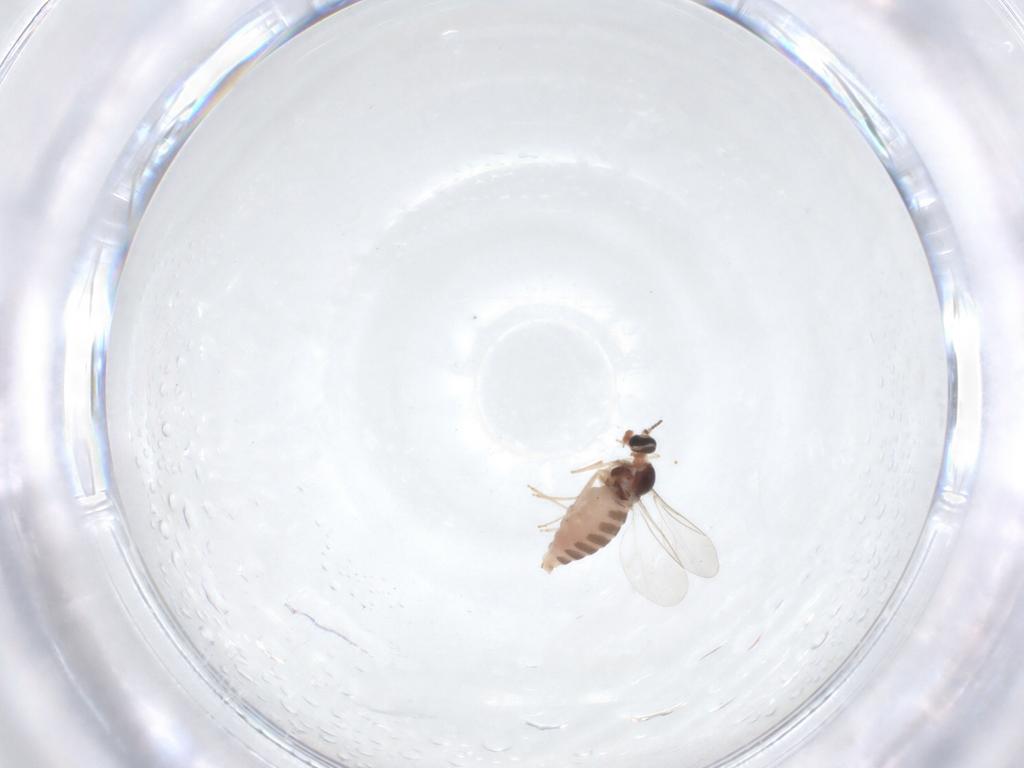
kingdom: Animalia
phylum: Arthropoda
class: Insecta
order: Diptera
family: Cecidomyiidae
